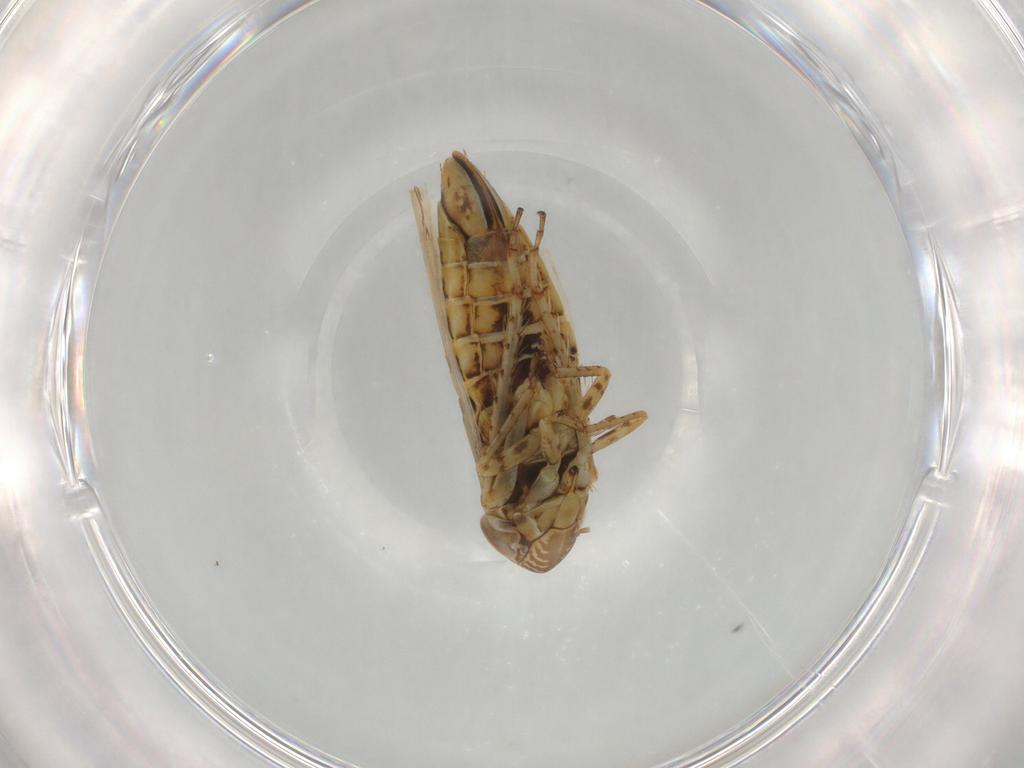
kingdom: Animalia
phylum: Arthropoda
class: Insecta
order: Hemiptera
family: Cicadellidae
